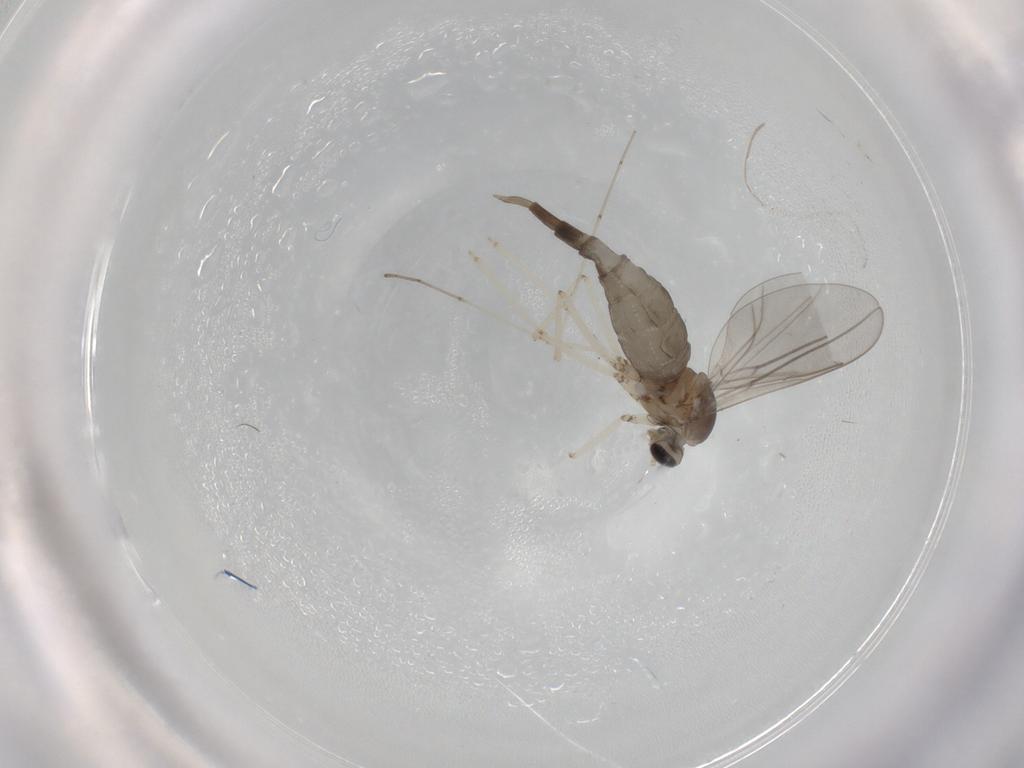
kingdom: Animalia
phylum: Arthropoda
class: Insecta
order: Diptera
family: Cecidomyiidae
